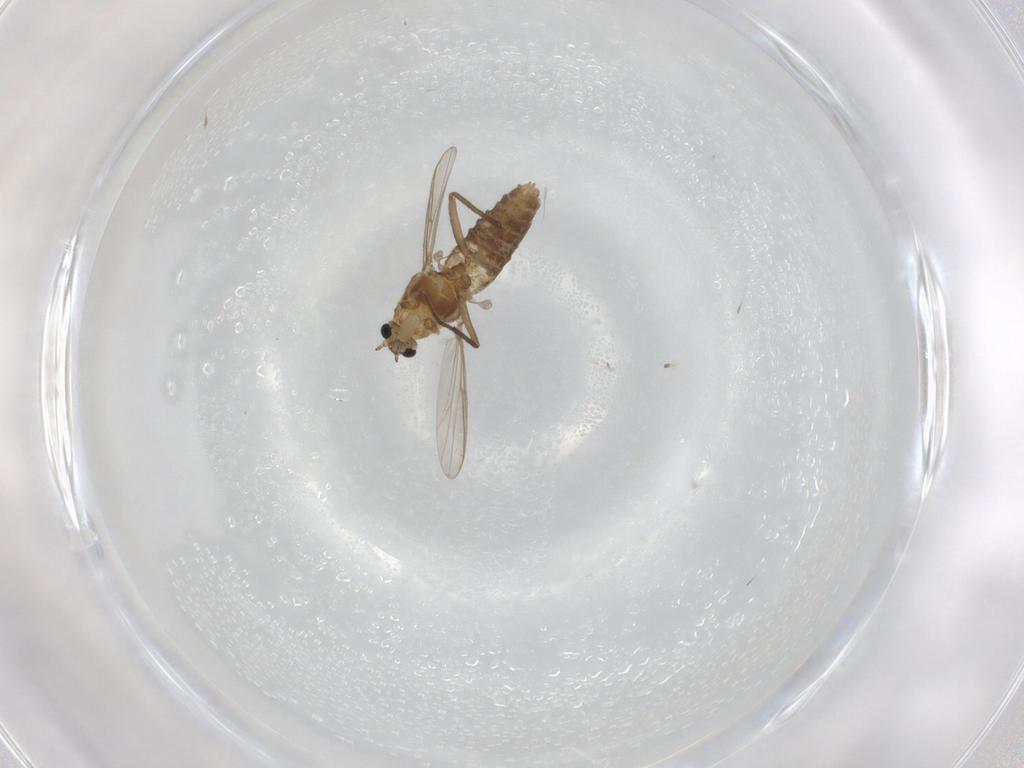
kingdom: Animalia
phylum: Arthropoda
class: Insecta
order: Diptera
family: Chironomidae
